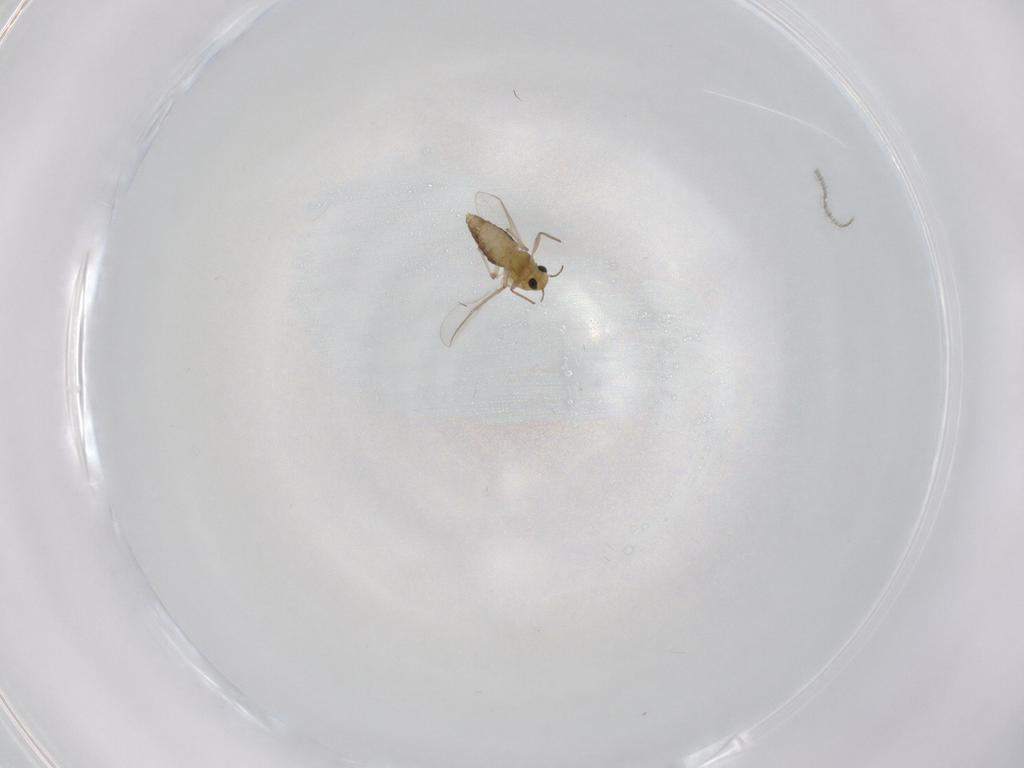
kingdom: Animalia
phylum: Arthropoda
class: Insecta
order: Diptera
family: Chironomidae
